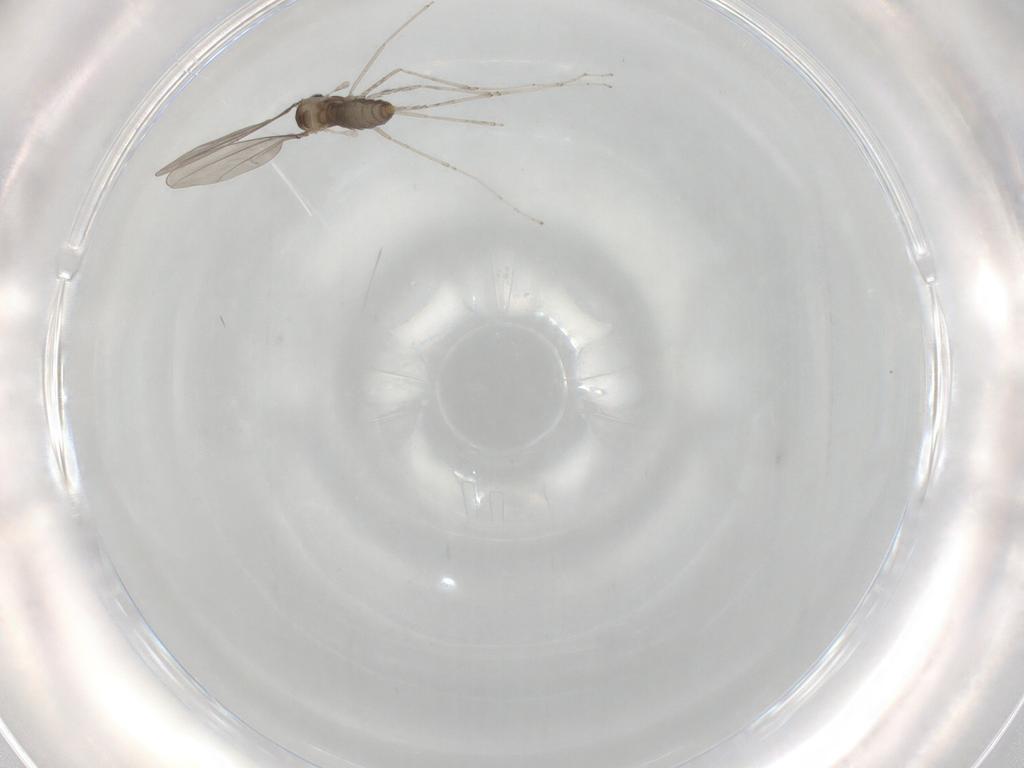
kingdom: Animalia
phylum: Arthropoda
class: Insecta
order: Diptera
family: Cecidomyiidae
